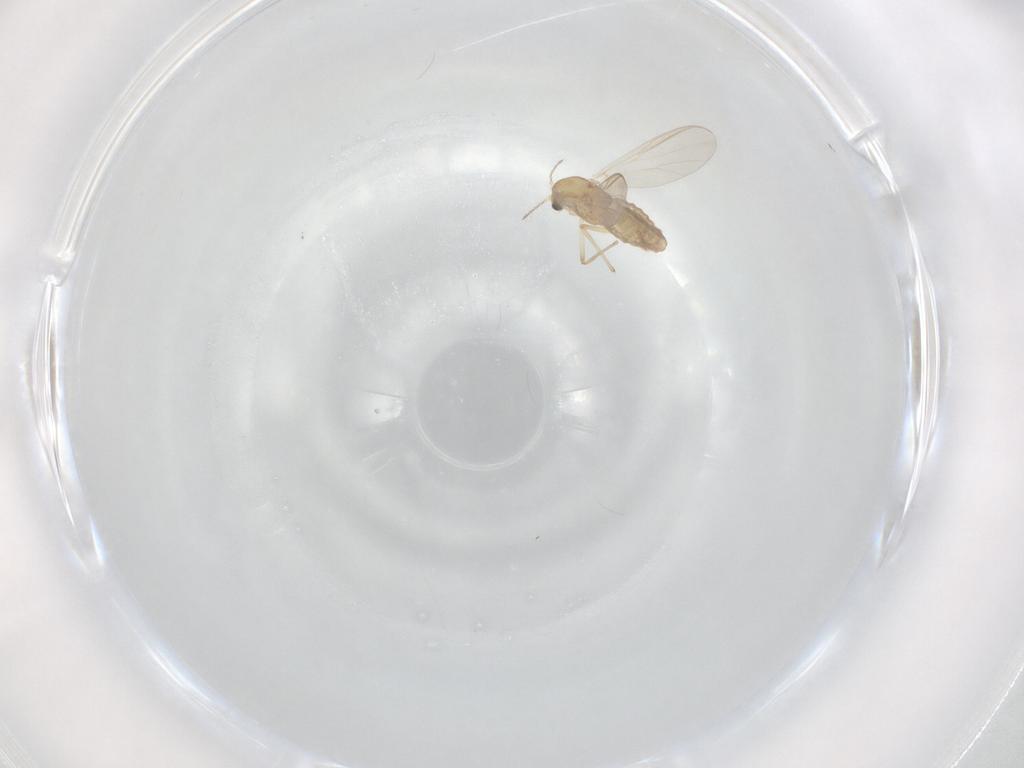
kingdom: Animalia
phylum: Arthropoda
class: Insecta
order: Diptera
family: Chironomidae
